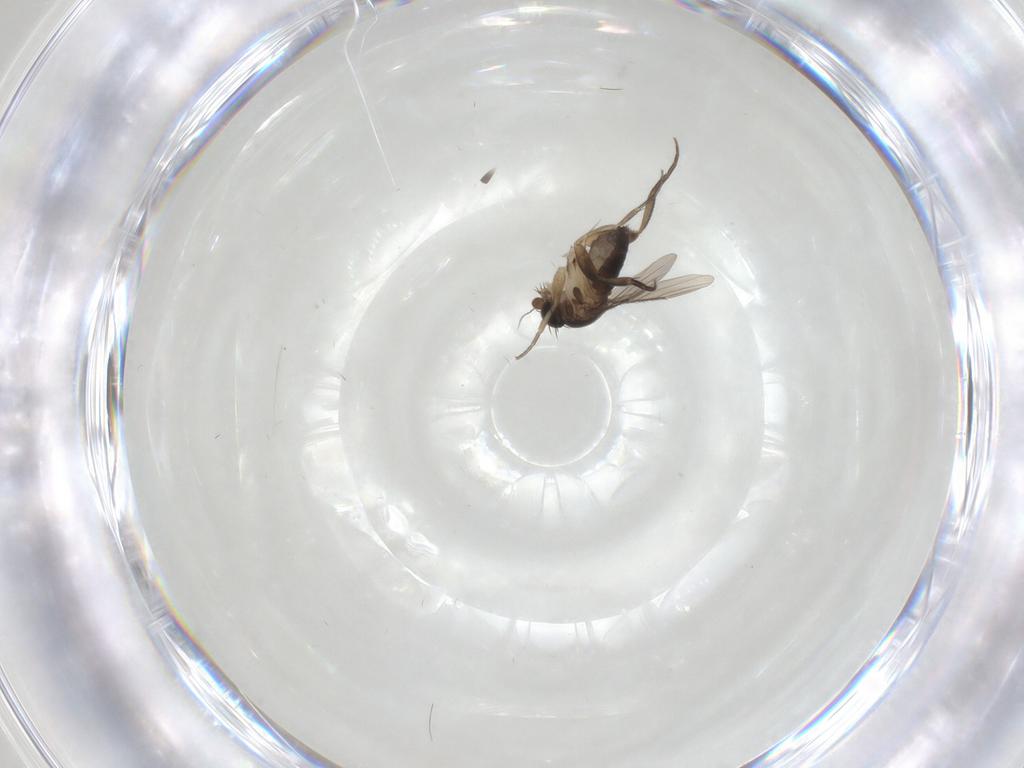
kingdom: Animalia
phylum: Arthropoda
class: Insecta
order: Diptera
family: Phoridae
